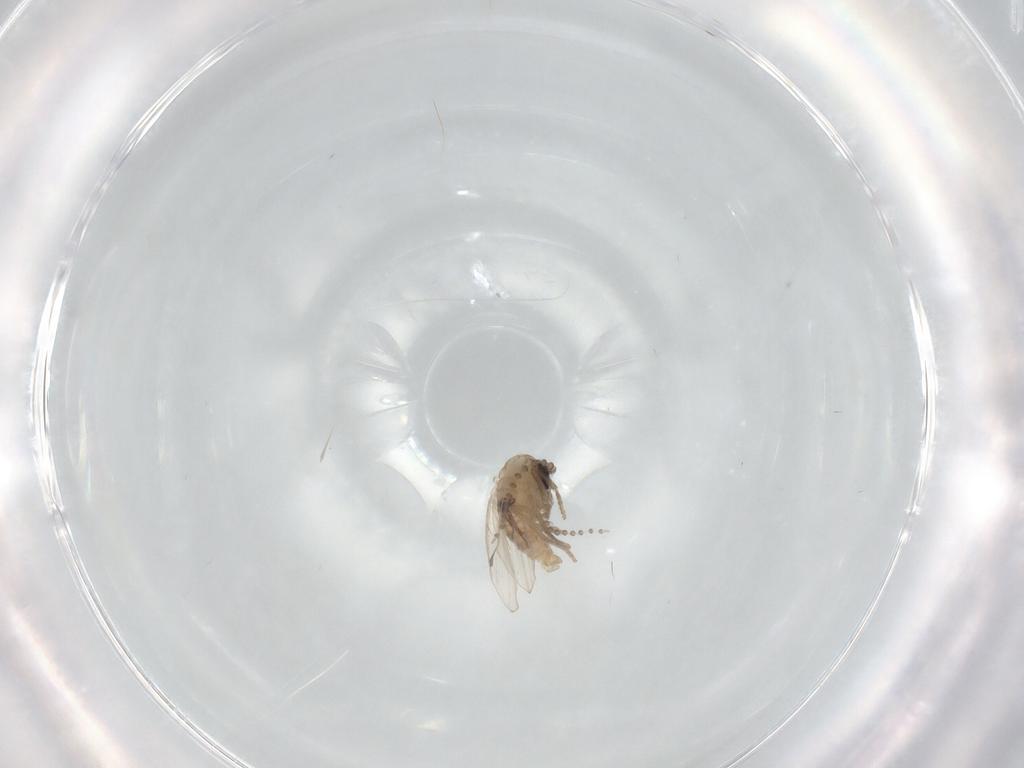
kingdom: Animalia
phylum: Arthropoda
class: Insecta
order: Diptera
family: Psychodidae
